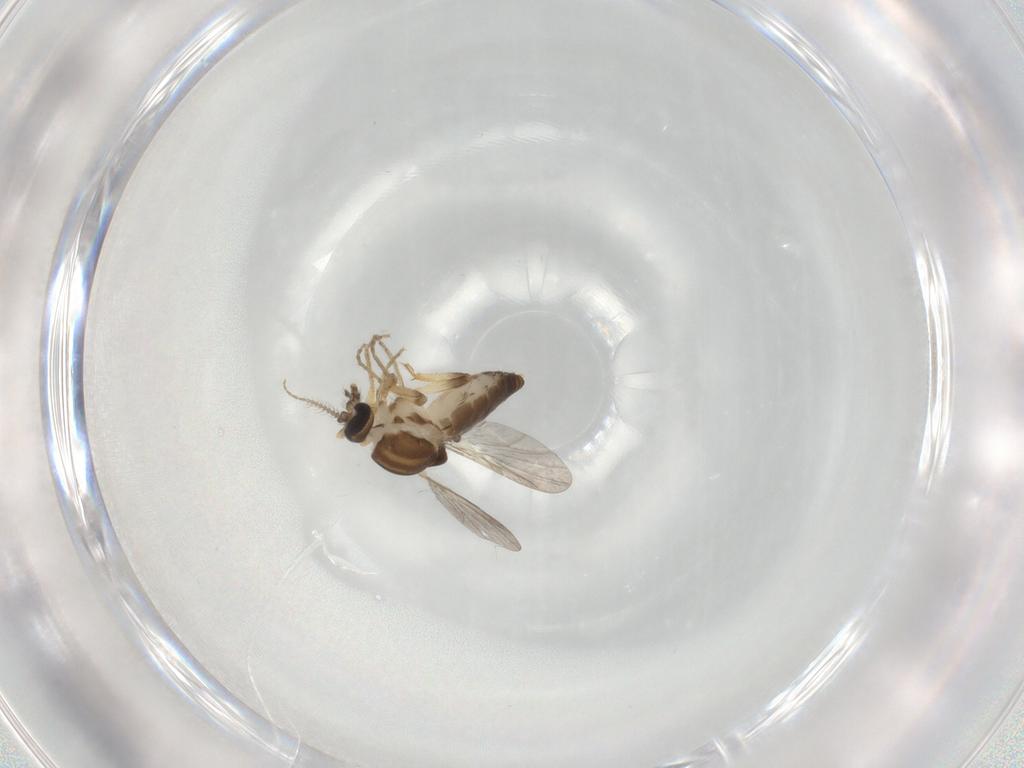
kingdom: Animalia
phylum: Arthropoda
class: Insecta
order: Diptera
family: Ceratopogonidae
